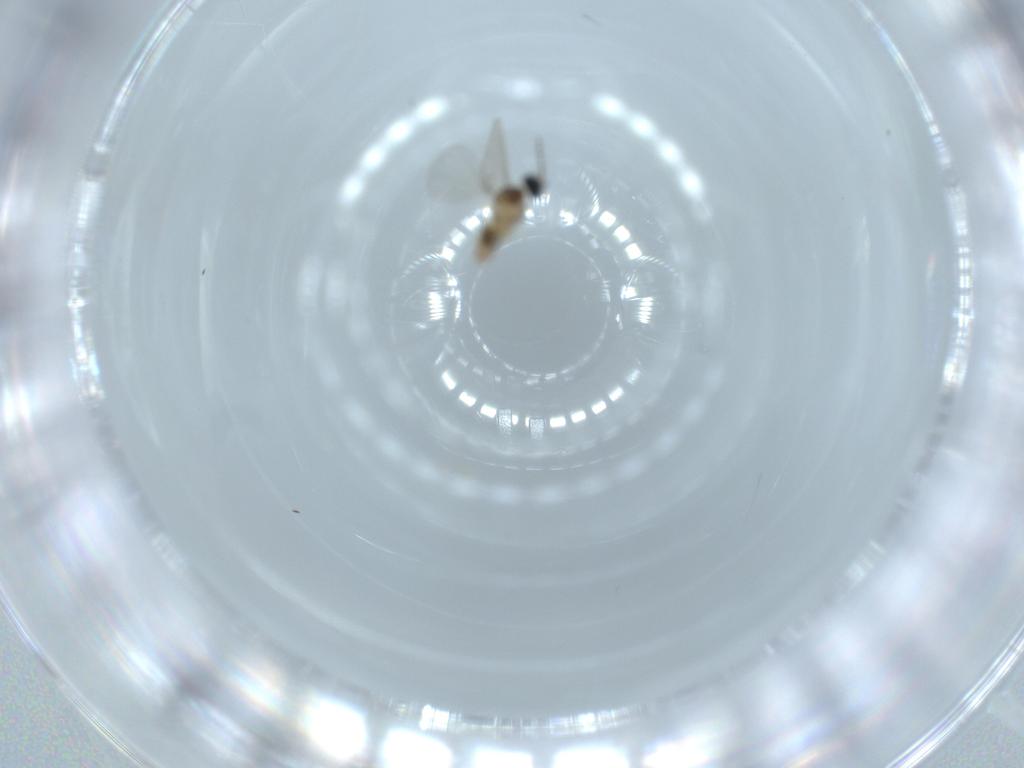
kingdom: Animalia
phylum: Arthropoda
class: Insecta
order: Diptera
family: Cecidomyiidae
